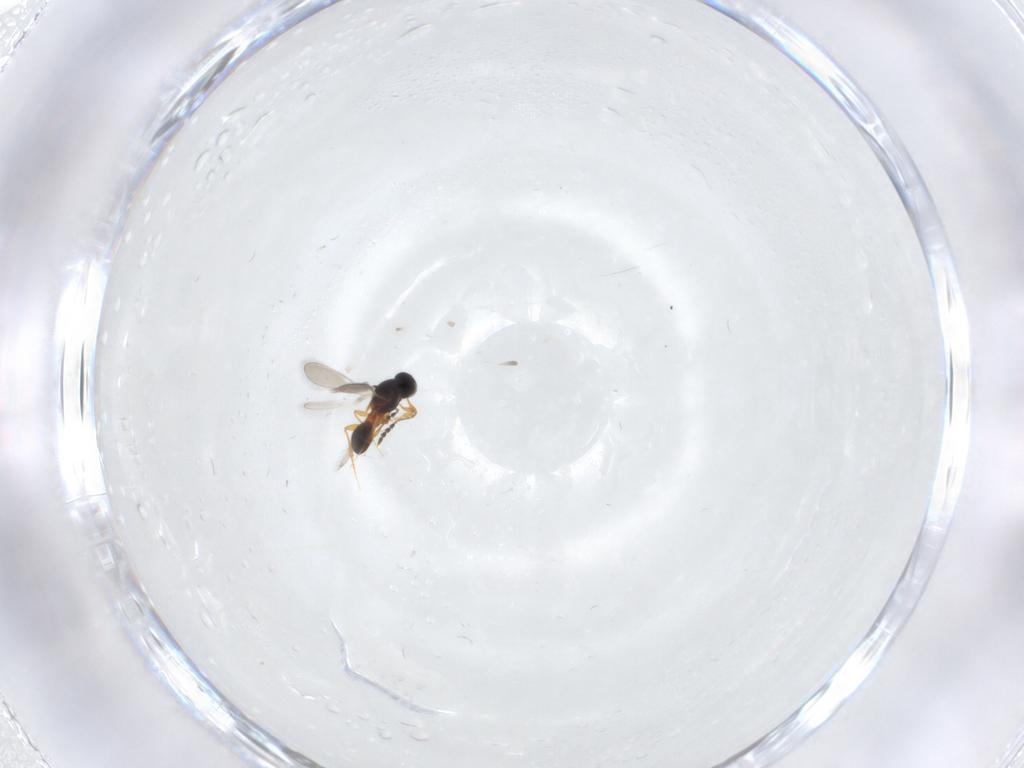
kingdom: Animalia
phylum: Arthropoda
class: Insecta
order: Hymenoptera
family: Platygastridae
